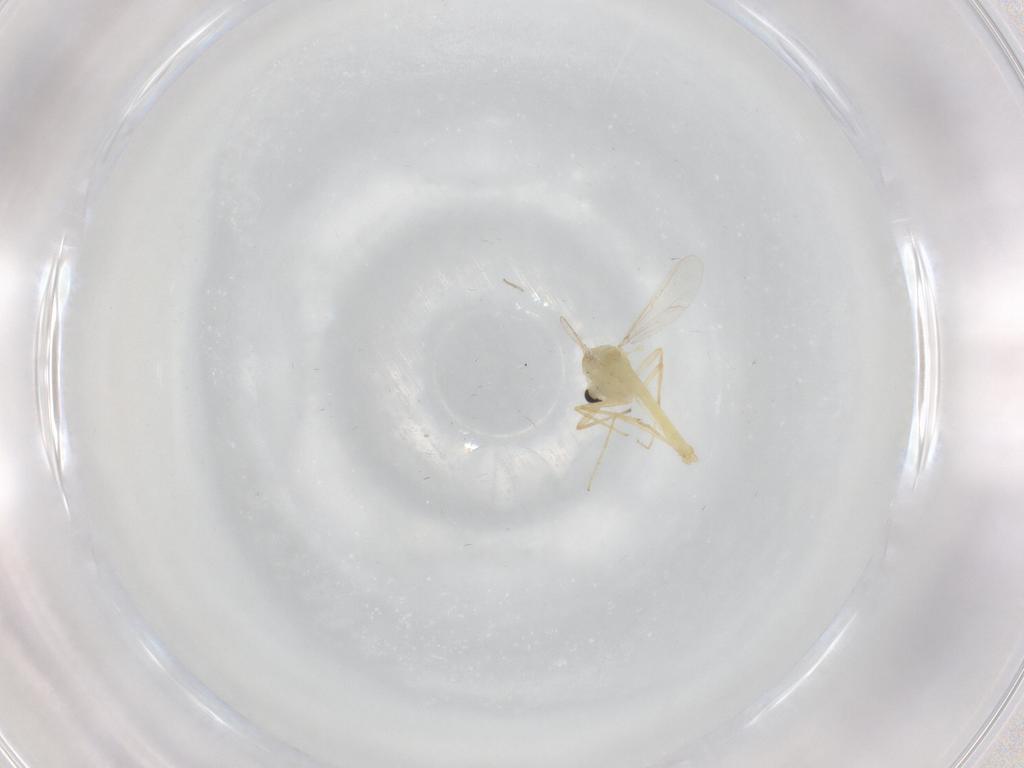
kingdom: Animalia
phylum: Arthropoda
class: Insecta
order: Diptera
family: Chironomidae
